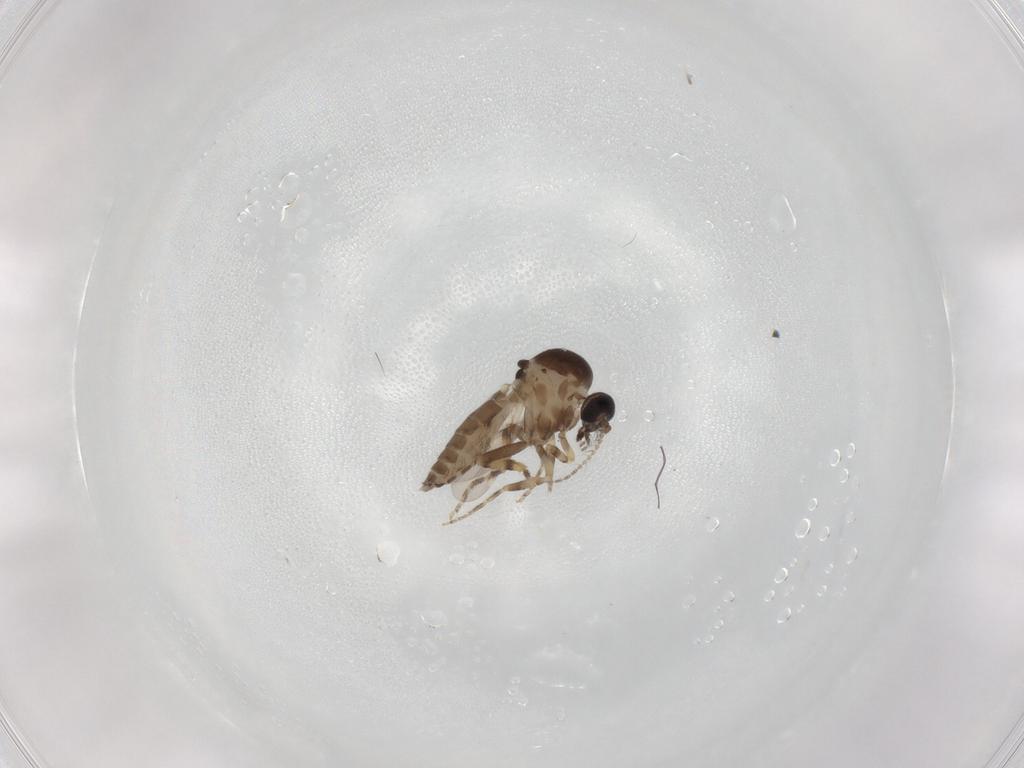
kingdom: Animalia
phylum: Arthropoda
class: Insecta
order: Diptera
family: Ceratopogonidae
